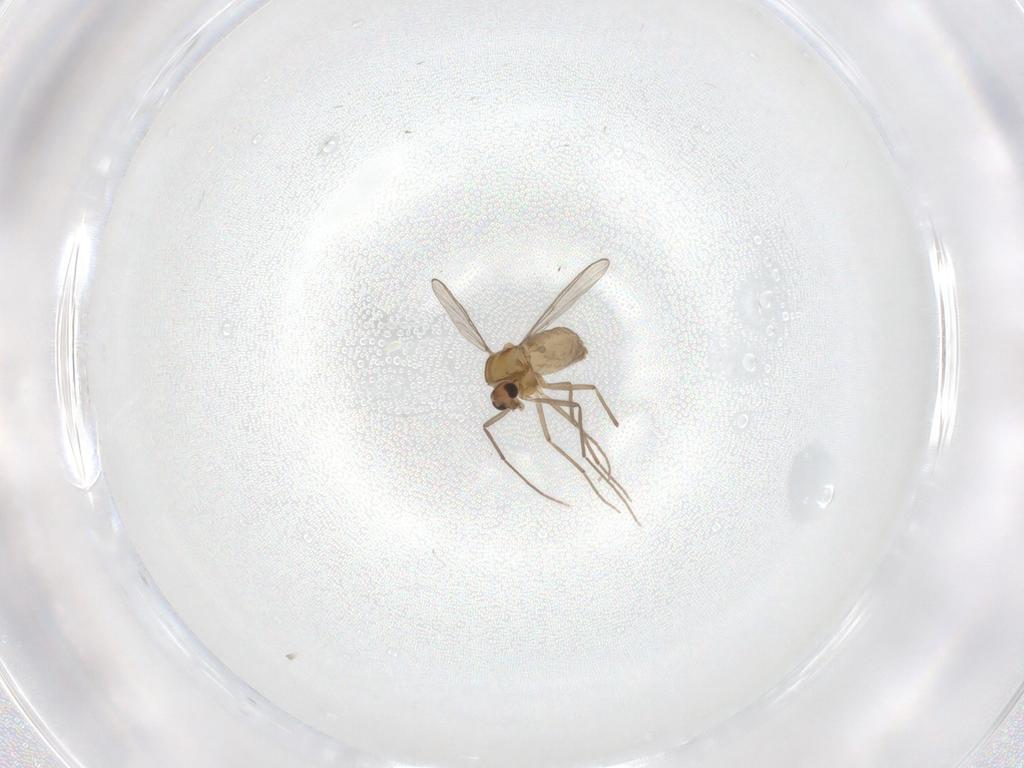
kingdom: Animalia
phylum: Arthropoda
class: Insecta
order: Diptera
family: Chironomidae
